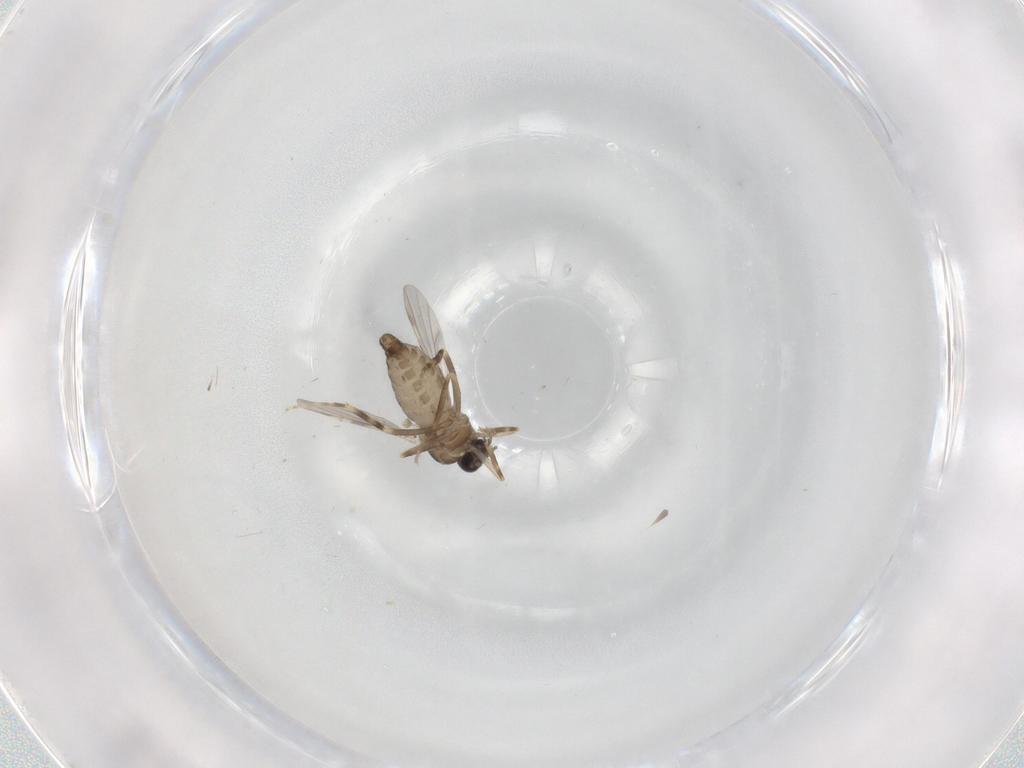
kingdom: Animalia
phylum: Arthropoda
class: Insecta
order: Diptera
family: Ceratopogonidae
